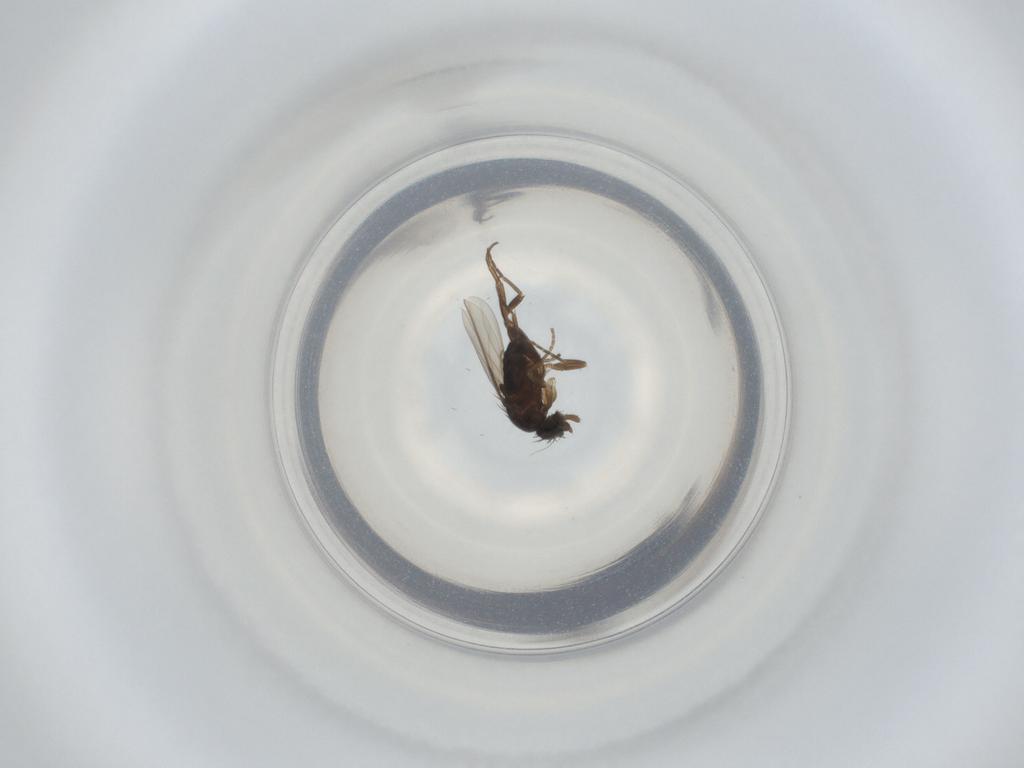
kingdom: Animalia
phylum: Arthropoda
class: Insecta
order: Diptera
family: Phoridae
